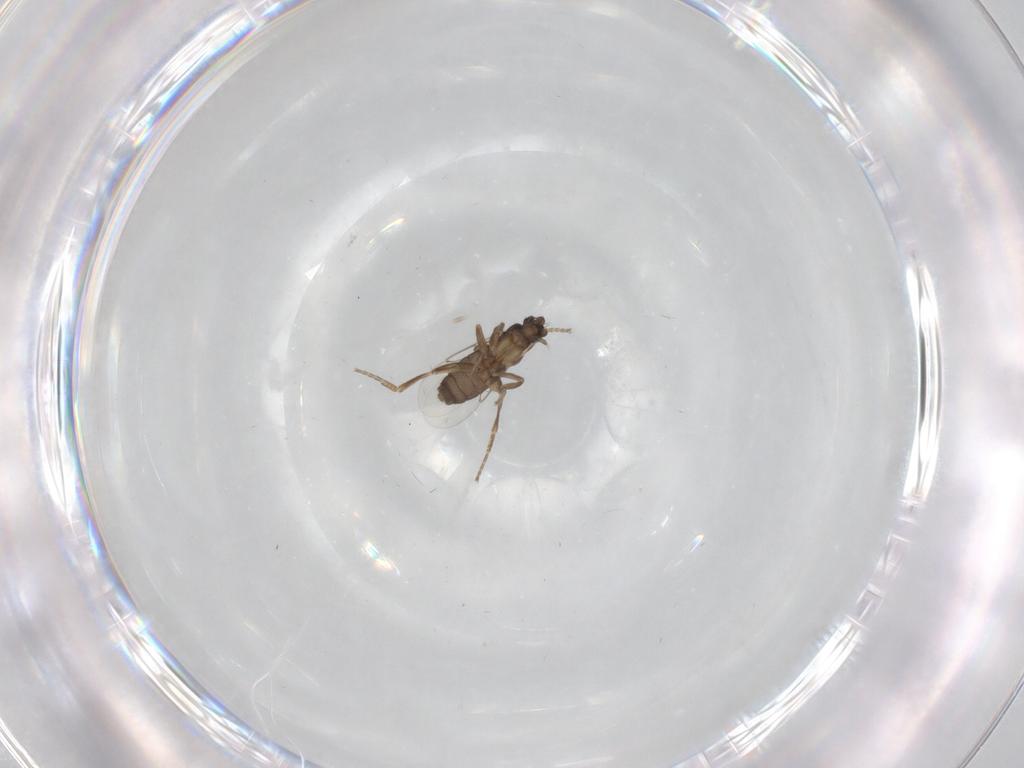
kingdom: Animalia
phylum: Arthropoda
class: Insecta
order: Diptera
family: Phoridae
